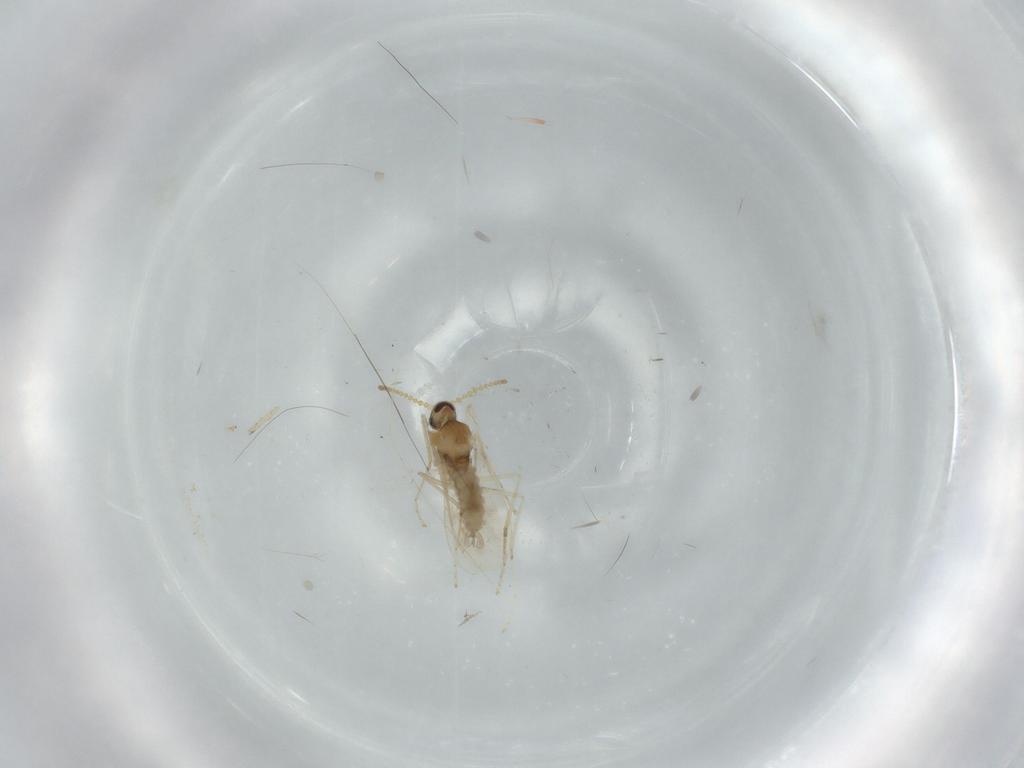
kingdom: Animalia
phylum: Arthropoda
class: Insecta
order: Diptera
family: Cecidomyiidae
